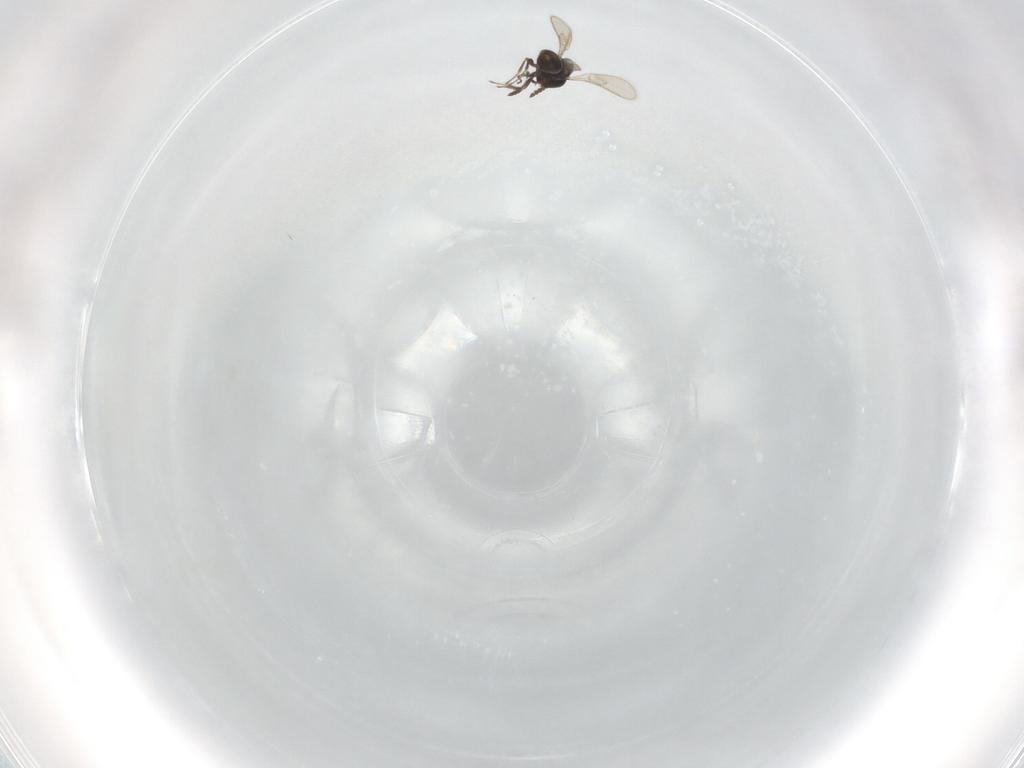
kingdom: Animalia
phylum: Arthropoda
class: Insecta
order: Hymenoptera
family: Scelionidae
